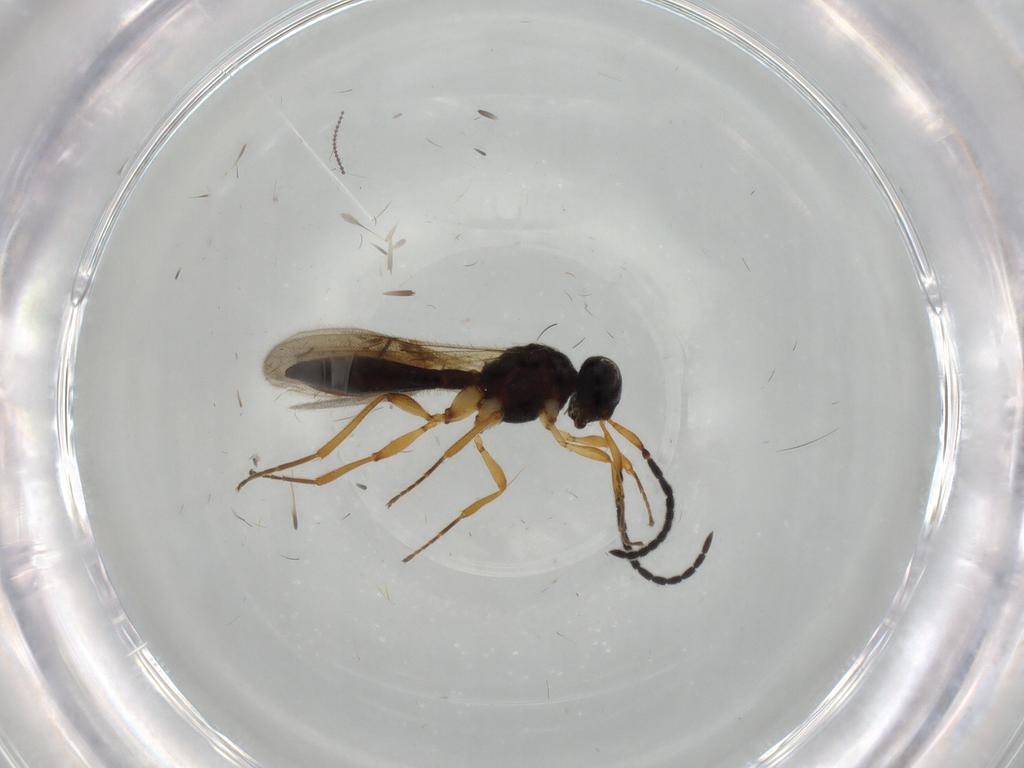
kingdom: Animalia
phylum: Arthropoda
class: Insecta
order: Hymenoptera
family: Scelionidae
